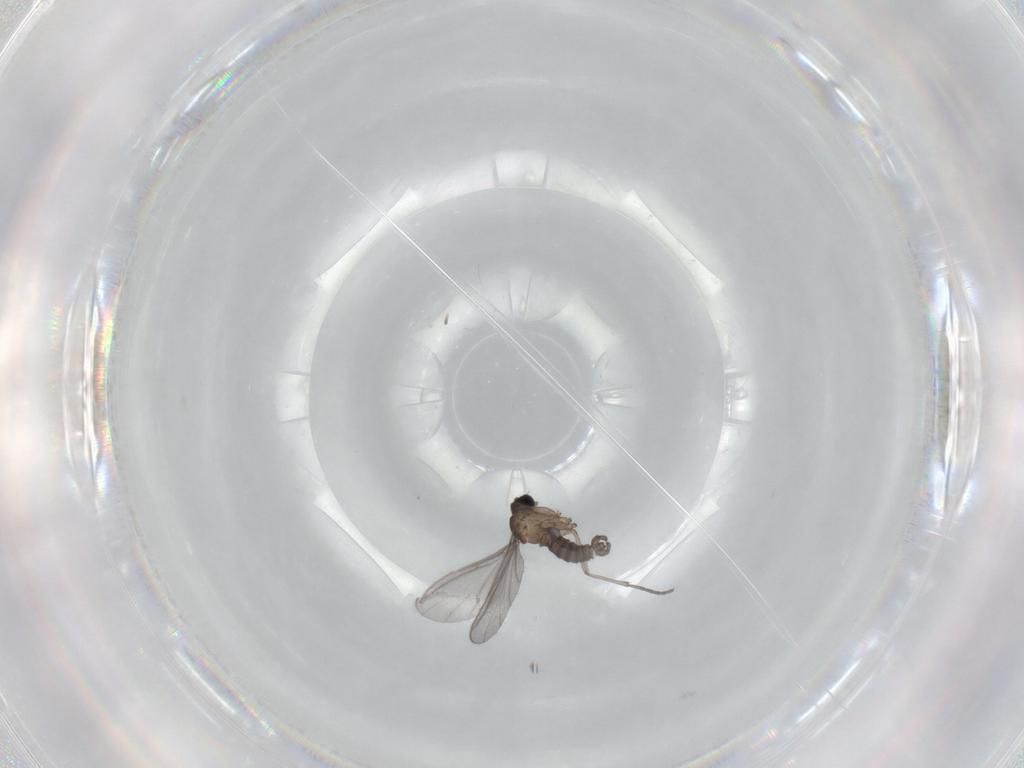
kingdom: Animalia
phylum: Arthropoda
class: Insecta
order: Diptera
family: Sciaridae
